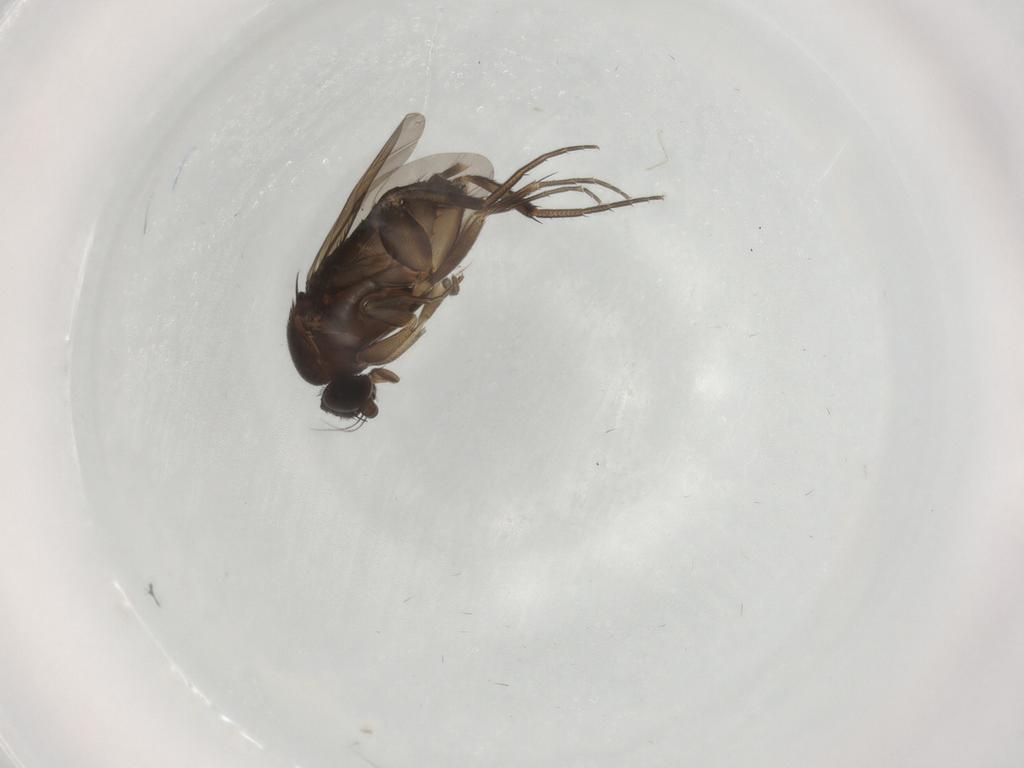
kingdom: Animalia
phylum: Arthropoda
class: Insecta
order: Diptera
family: Phoridae
